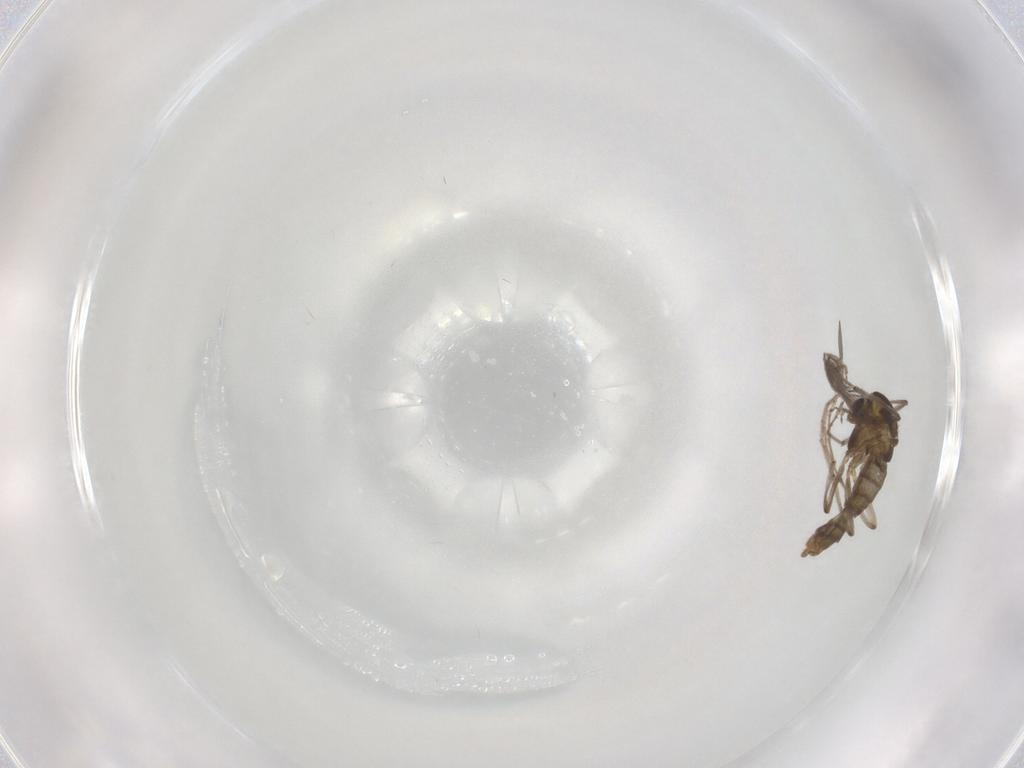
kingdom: Animalia
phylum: Arthropoda
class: Insecta
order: Diptera
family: Chironomidae
